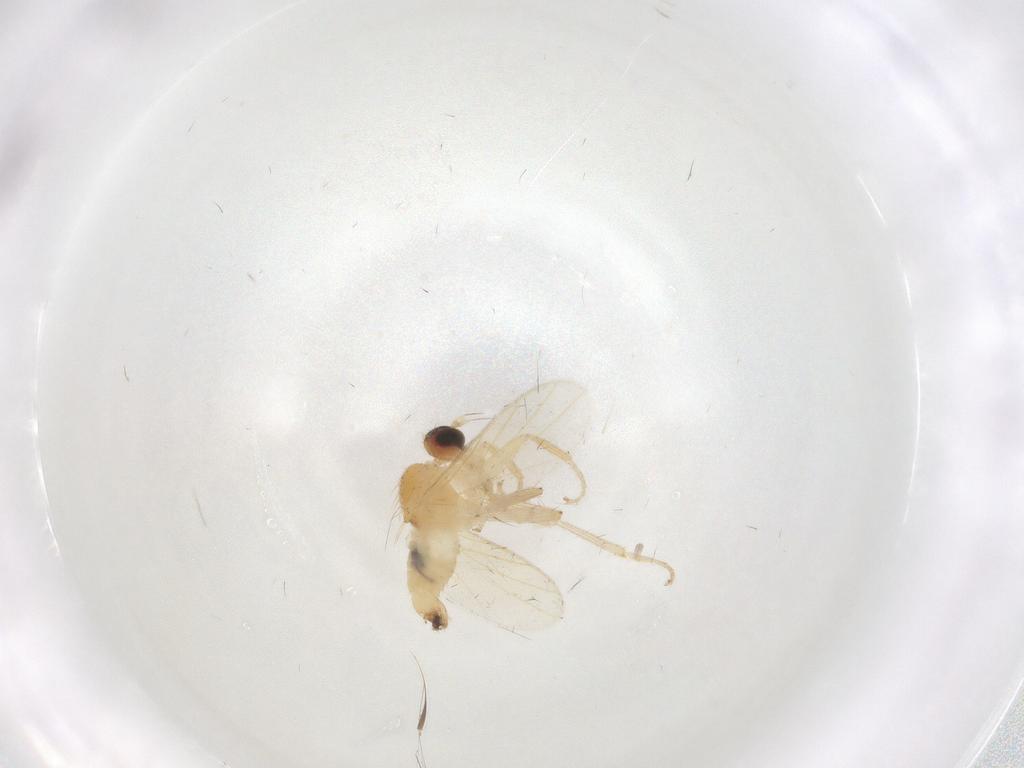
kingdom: Animalia
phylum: Arthropoda
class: Insecta
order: Diptera
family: Hybotidae
